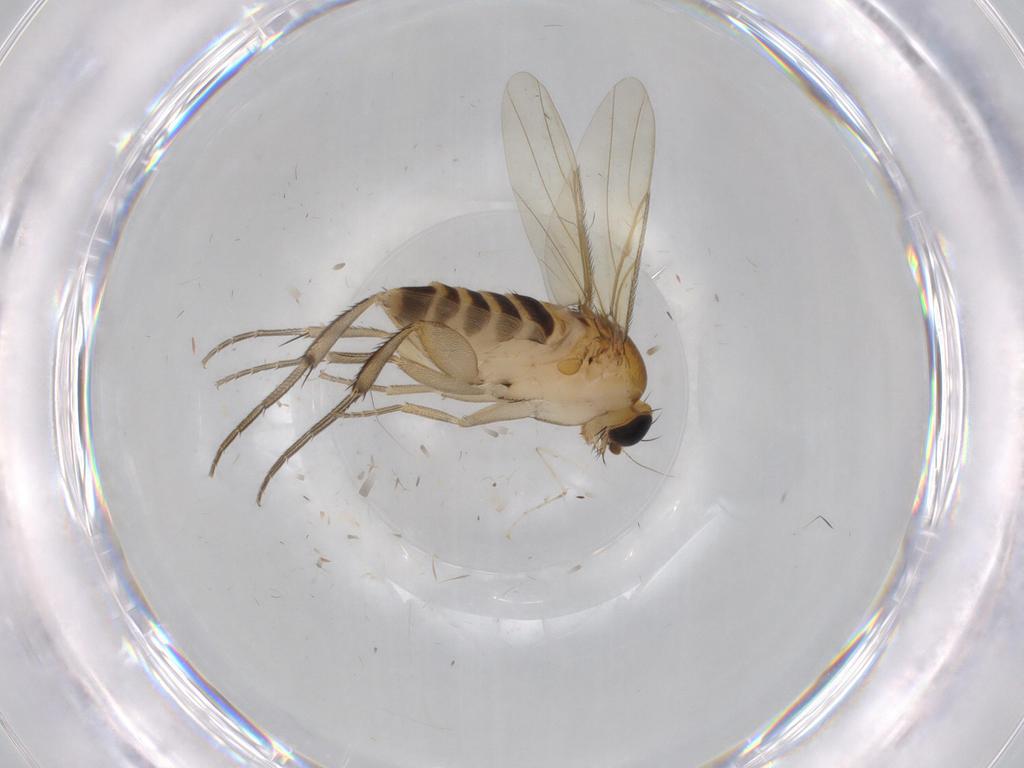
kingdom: Animalia
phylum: Arthropoda
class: Insecta
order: Diptera
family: Phoridae
